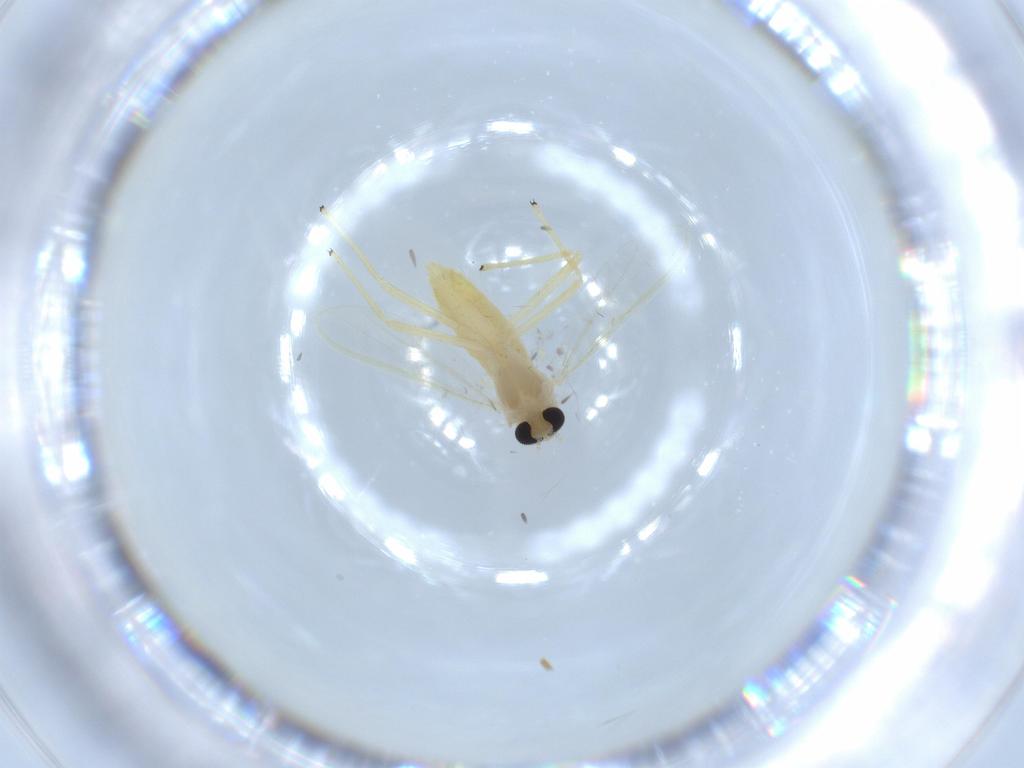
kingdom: Animalia
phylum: Arthropoda
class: Insecta
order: Diptera
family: Chironomidae
